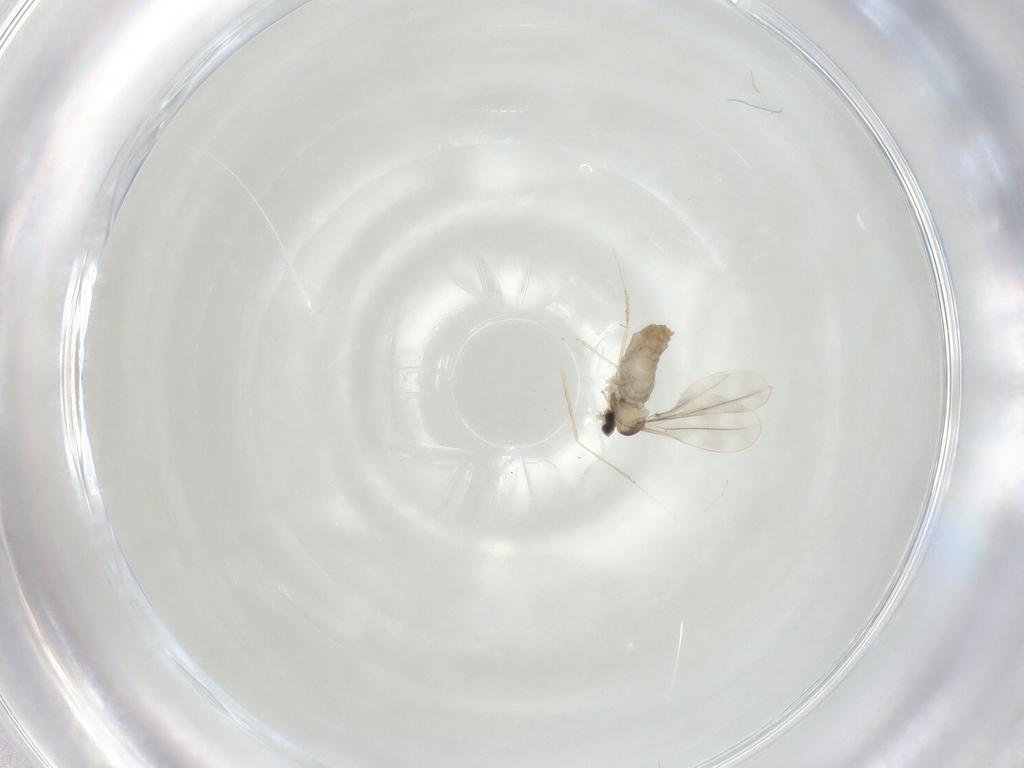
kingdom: Animalia
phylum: Arthropoda
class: Insecta
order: Diptera
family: Cecidomyiidae
